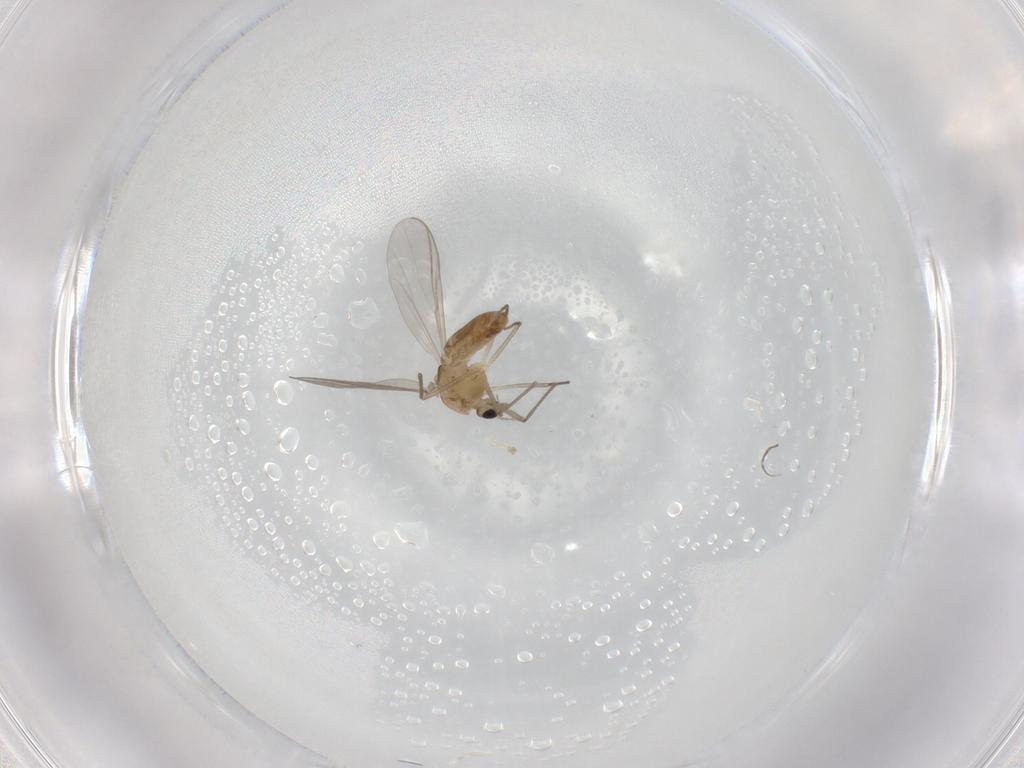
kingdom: Animalia
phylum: Arthropoda
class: Insecta
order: Diptera
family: Chironomidae
